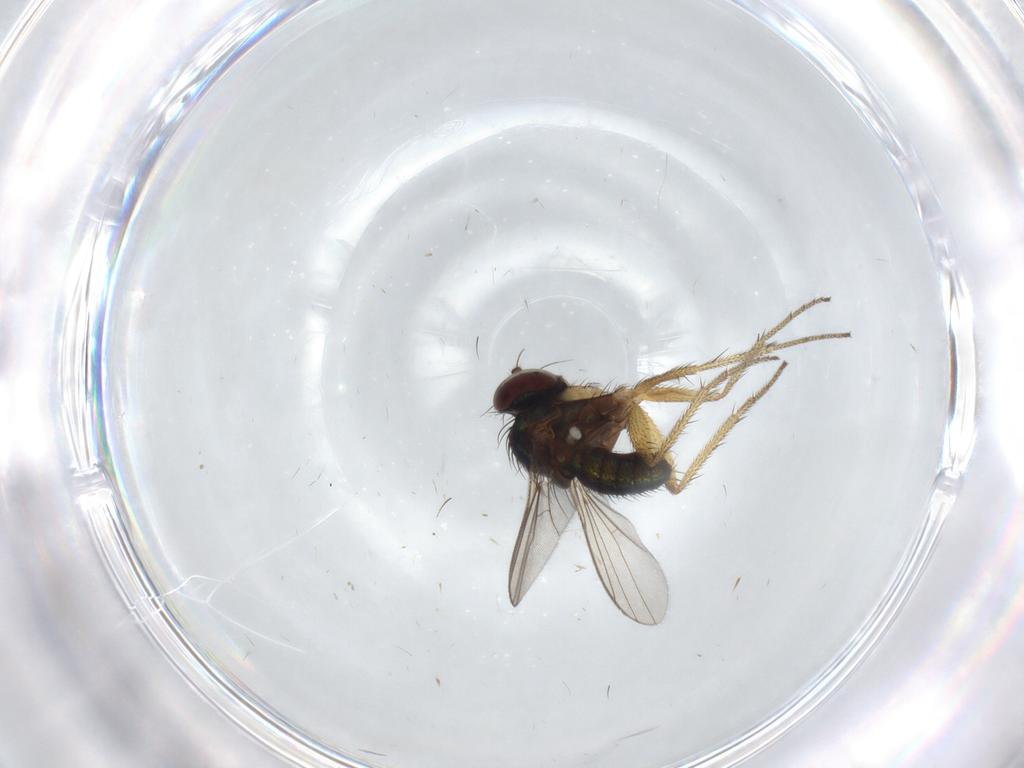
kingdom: Animalia
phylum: Arthropoda
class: Insecta
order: Diptera
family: Dolichopodidae
